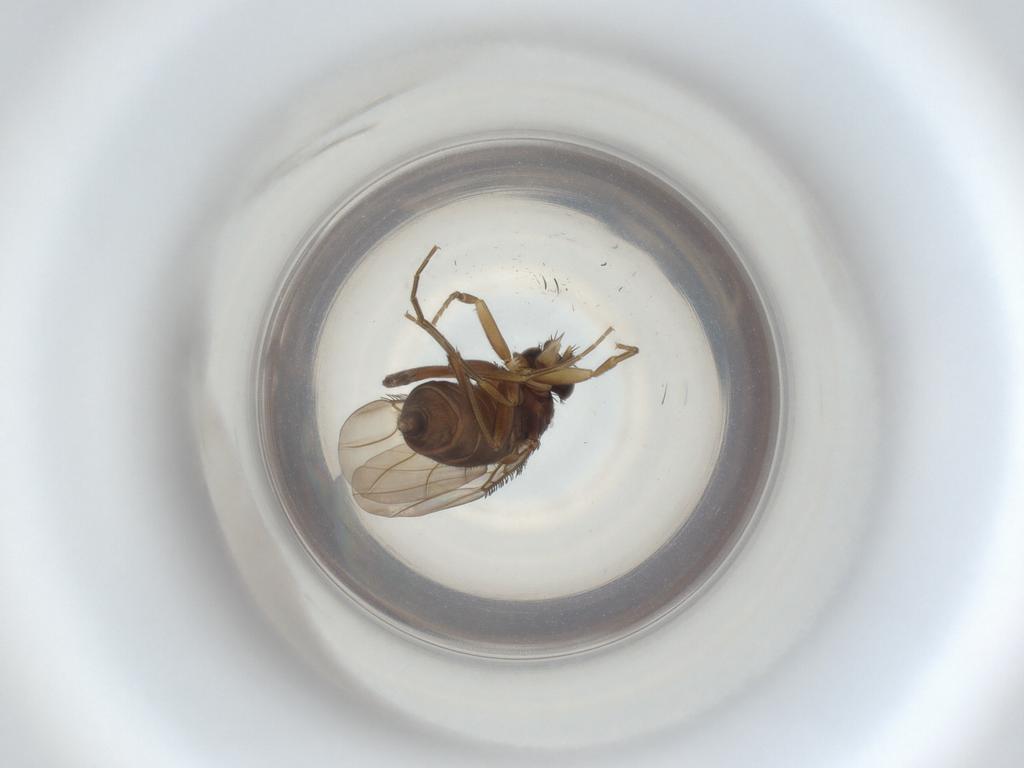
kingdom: Animalia
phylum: Arthropoda
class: Insecta
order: Diptera
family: Phoridae
